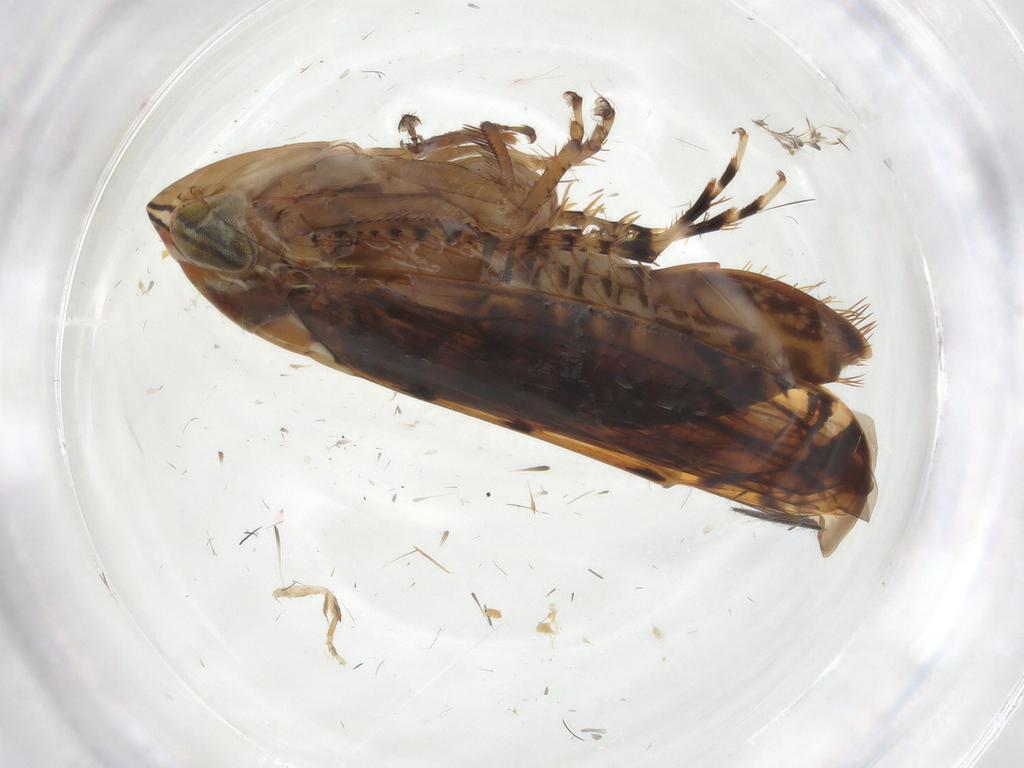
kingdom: Animalia
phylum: Arthropoda
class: Insecta
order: Hemiptera
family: Cicadellidae
